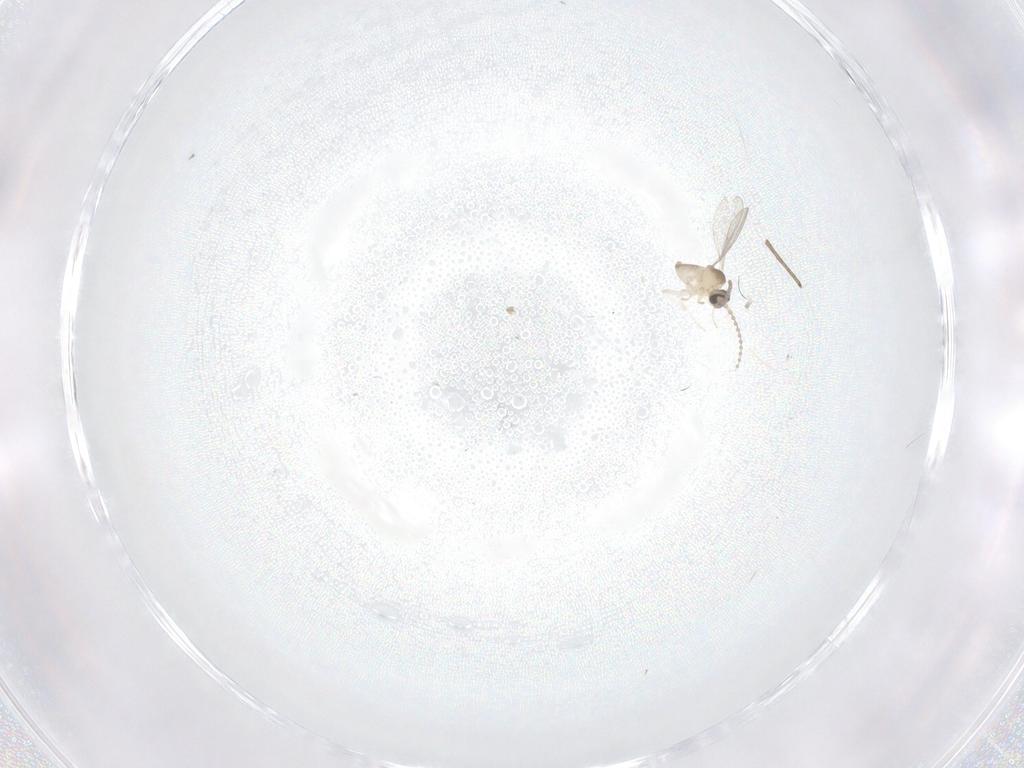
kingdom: Animalia
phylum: Arthropoda
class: Insecta
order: Diptera
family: Cecidomyiidae
